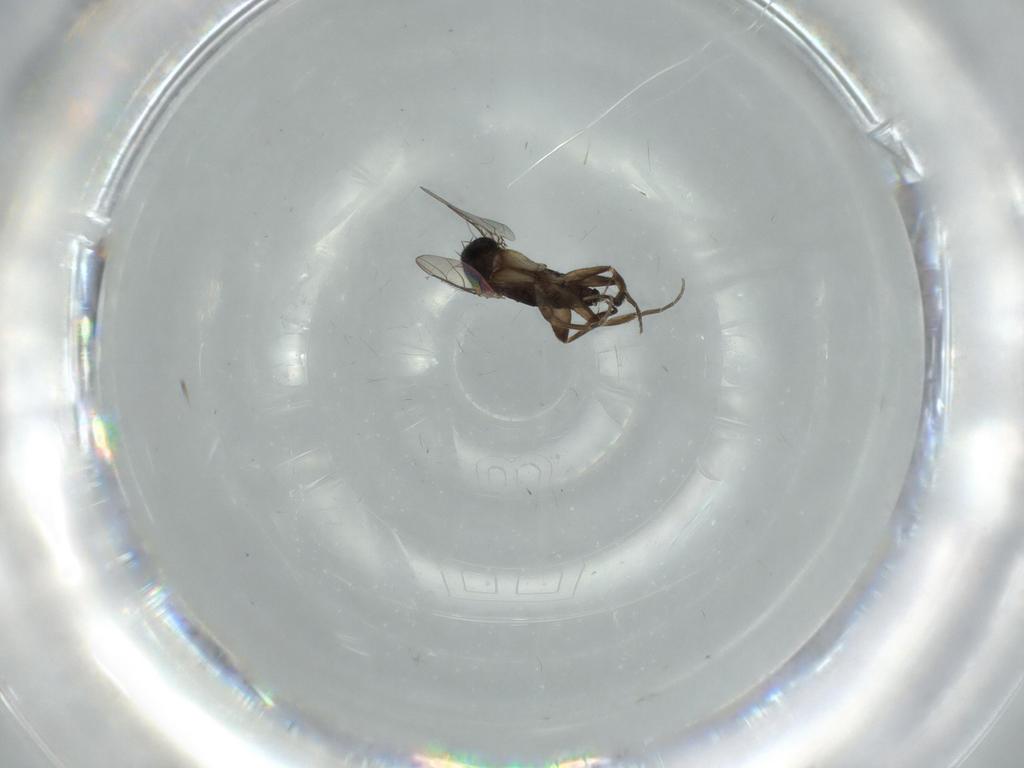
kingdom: Animalia
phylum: Arthropoda
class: Insecta
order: Diptera
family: Phoridae
